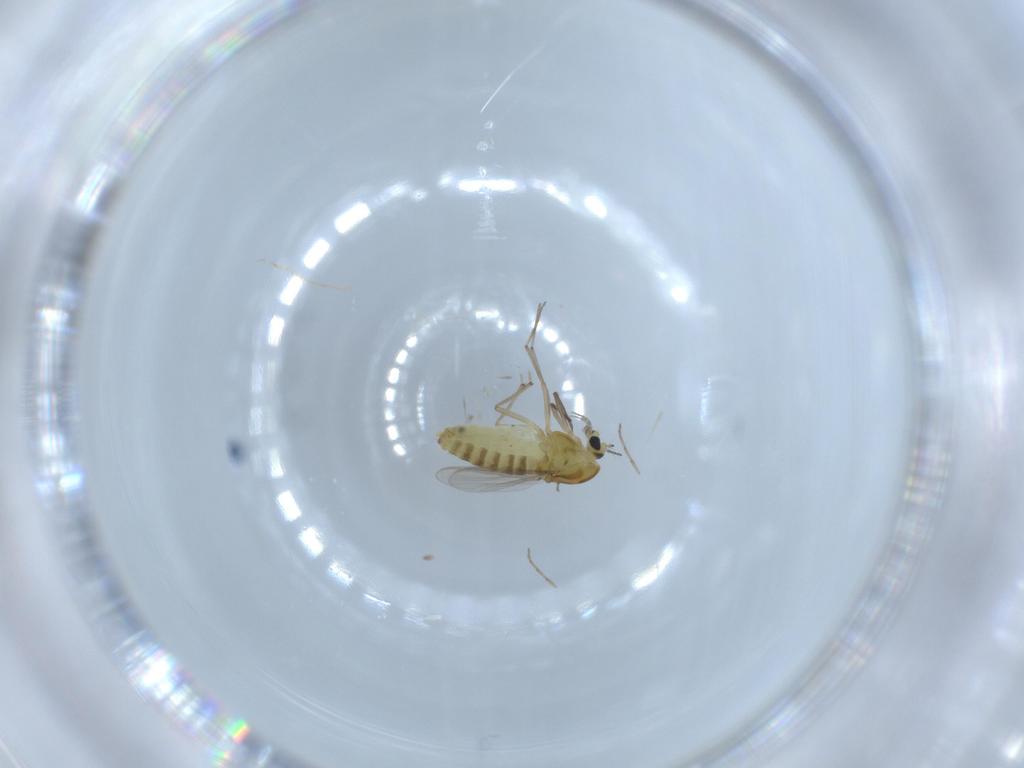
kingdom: Animalia
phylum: Arthropoda
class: Insecta
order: Diptera
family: Chironomidae
